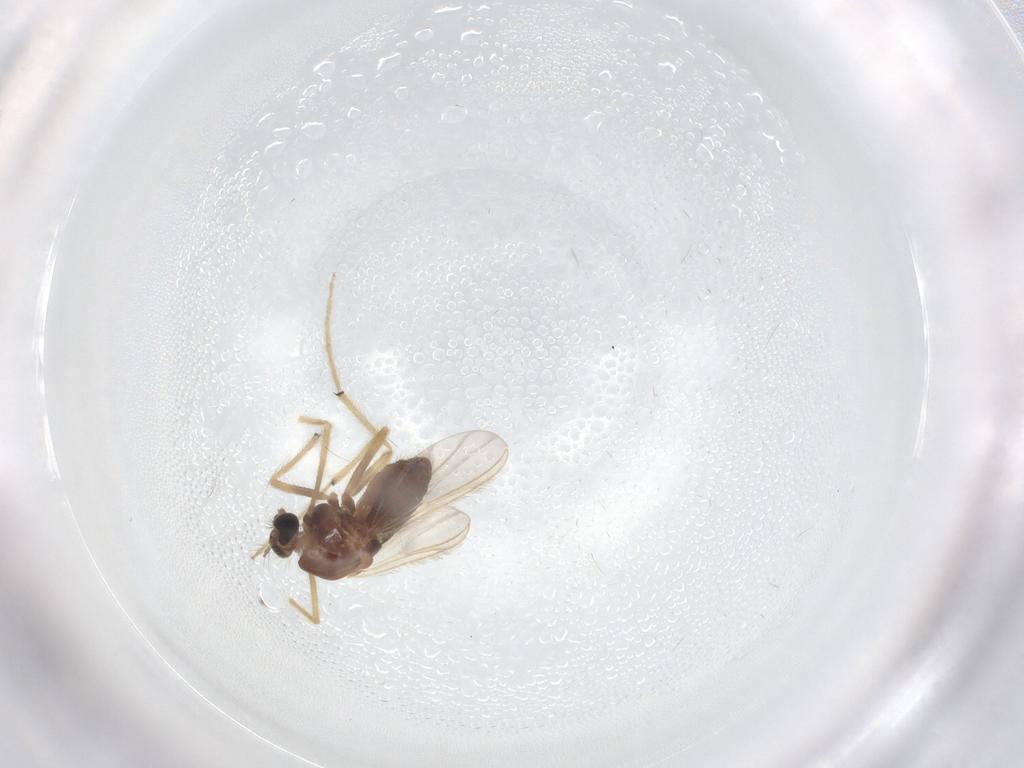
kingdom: Animalia
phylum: Arthropoda
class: Insecta
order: Diptera
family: Chironomidae
